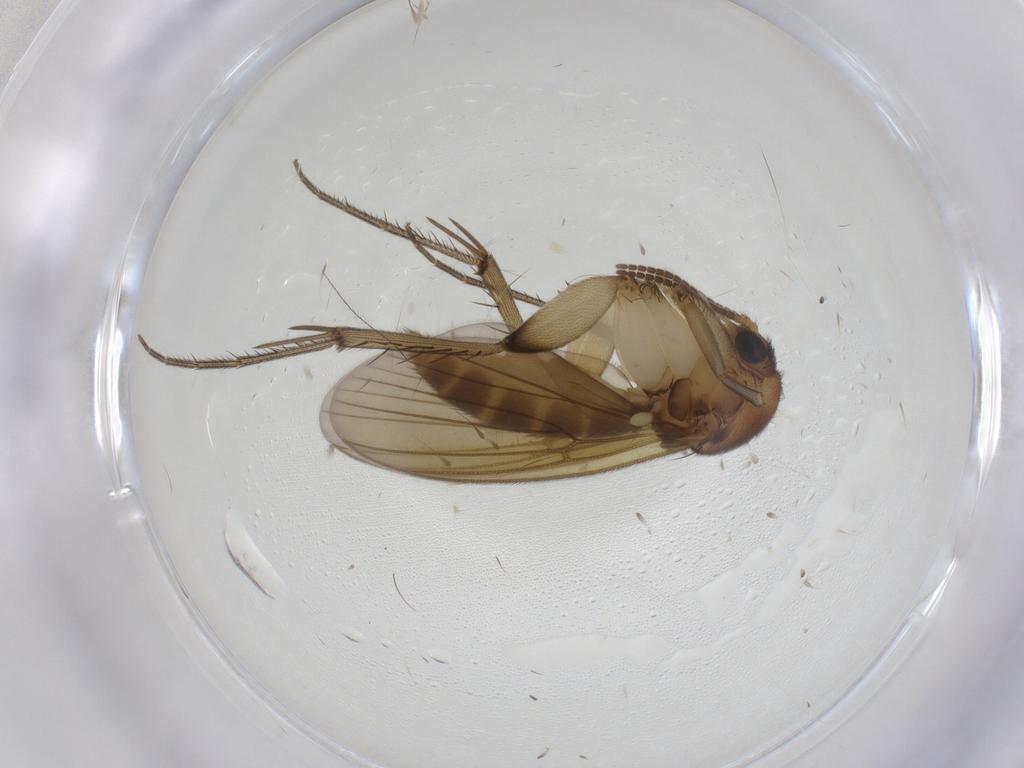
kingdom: Animalia
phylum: Arthropoda
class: Insecta
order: Diptera
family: Mycetophilidae
